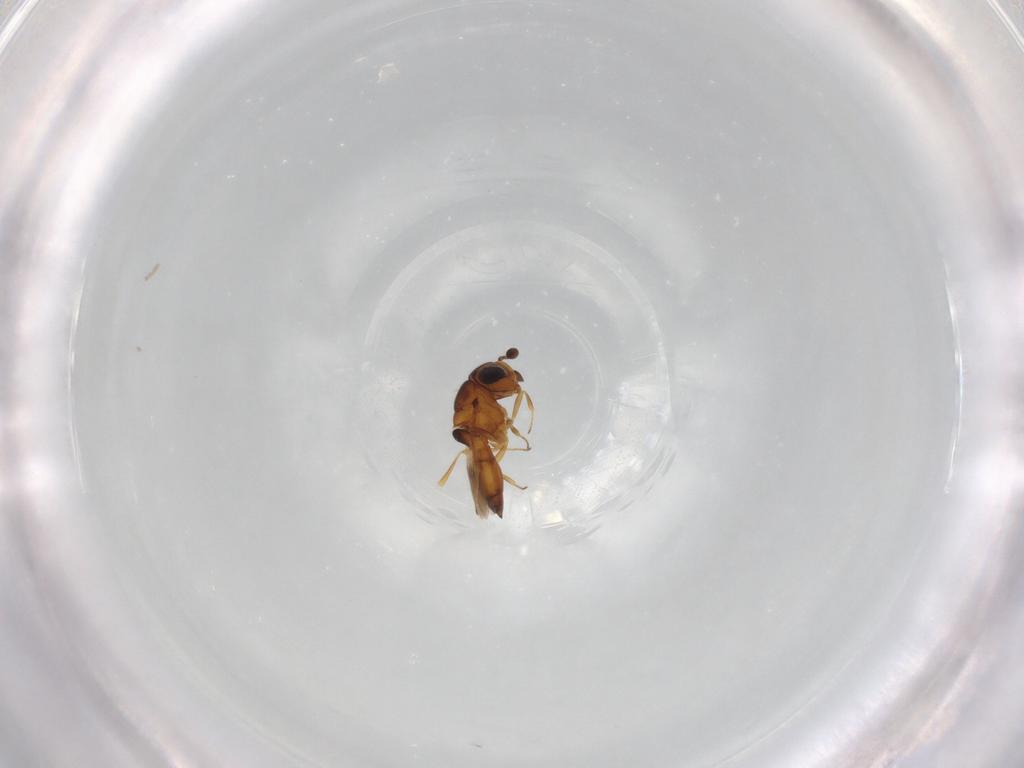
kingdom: Animalia
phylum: Arthropoda
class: Insecta
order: Hymenoptera
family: Scelionidae
